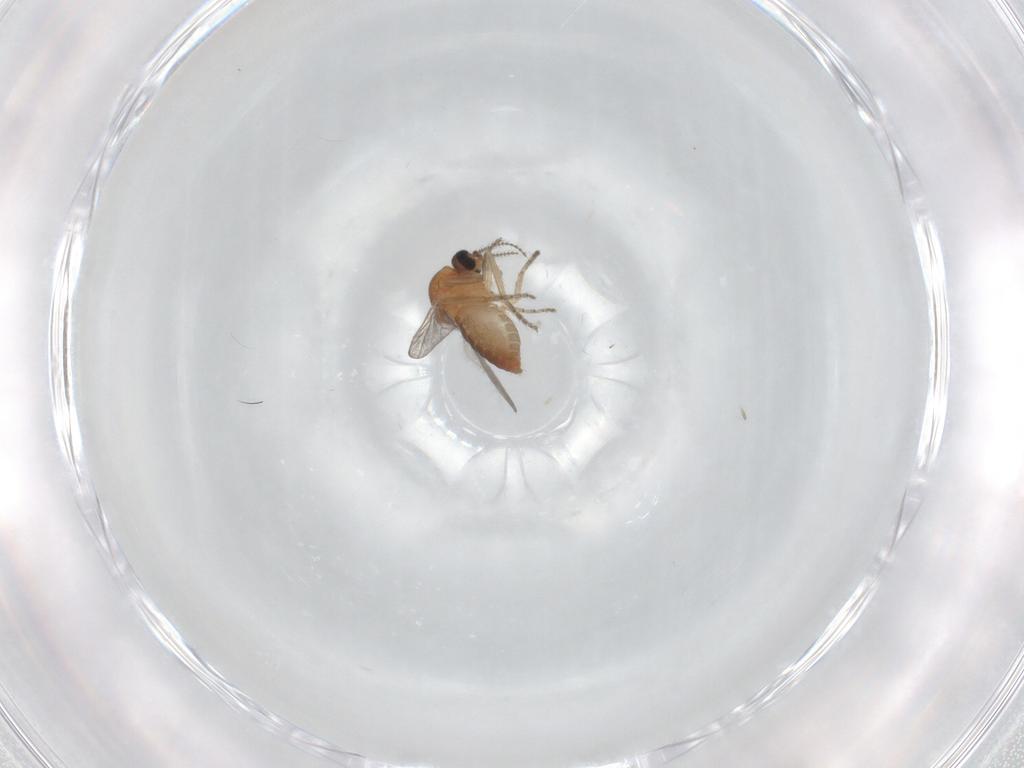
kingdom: Animalia
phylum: Arthropoda
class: Insecta
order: Diptera
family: Ceratopogonidae
